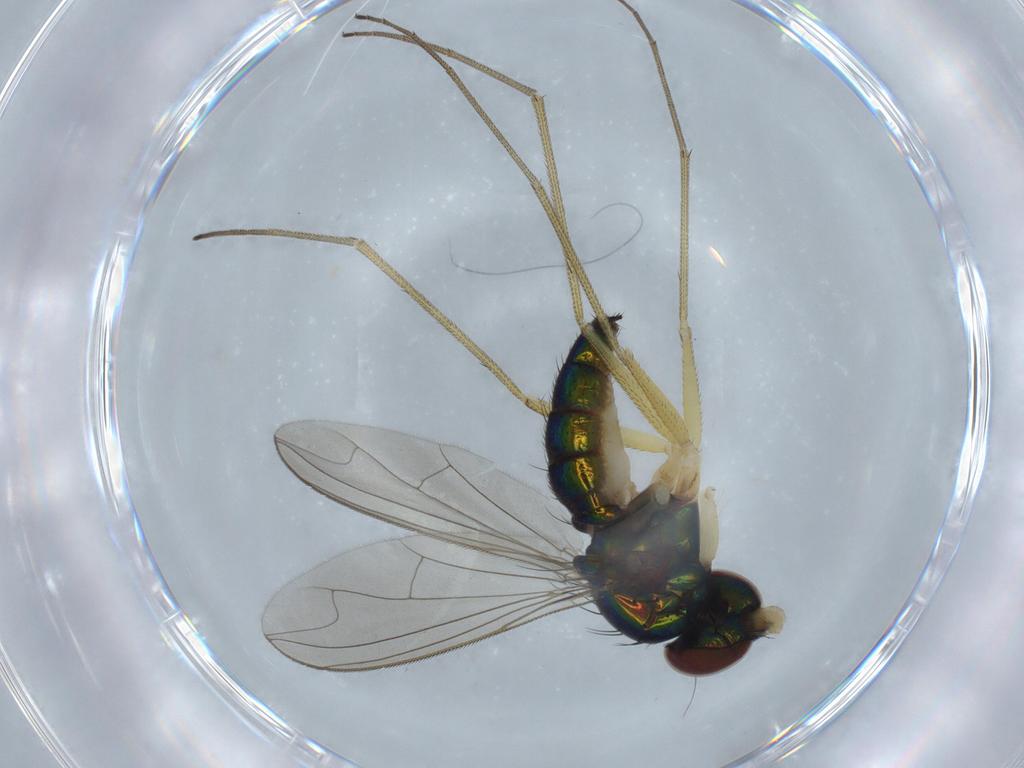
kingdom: Animalia
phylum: Arthropoda
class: Insecta
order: Diptera
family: Dolichopodidae
